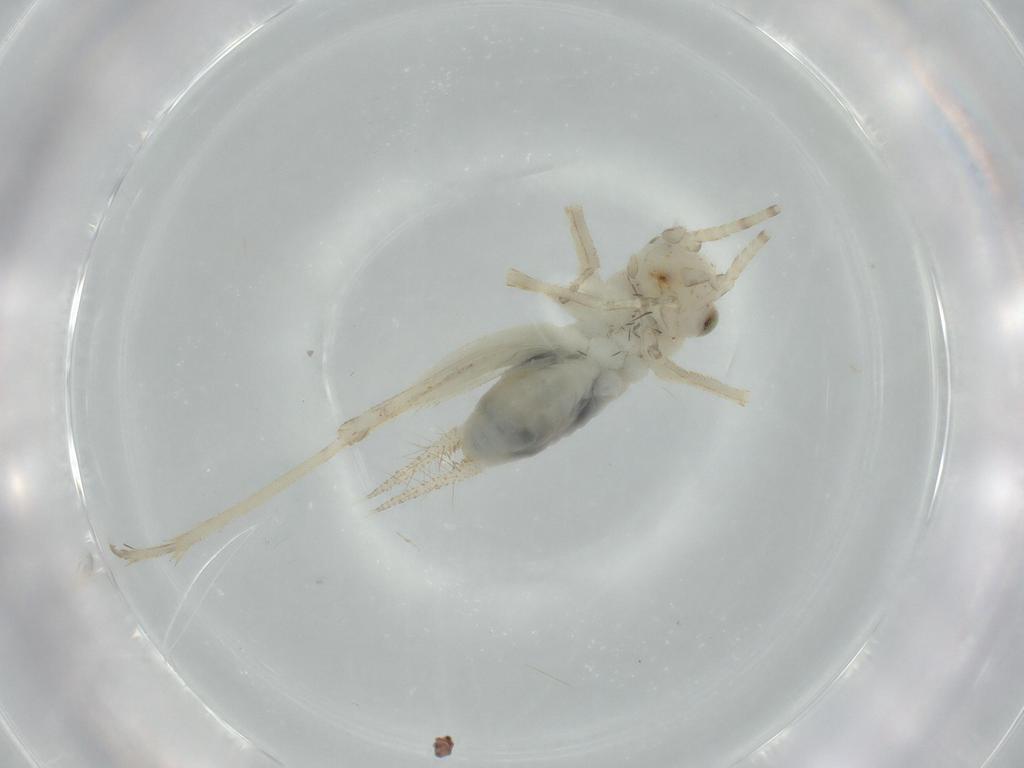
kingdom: Animalia
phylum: Arthropoda
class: Insecta
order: Orthoptera
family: Trigonidiidae
